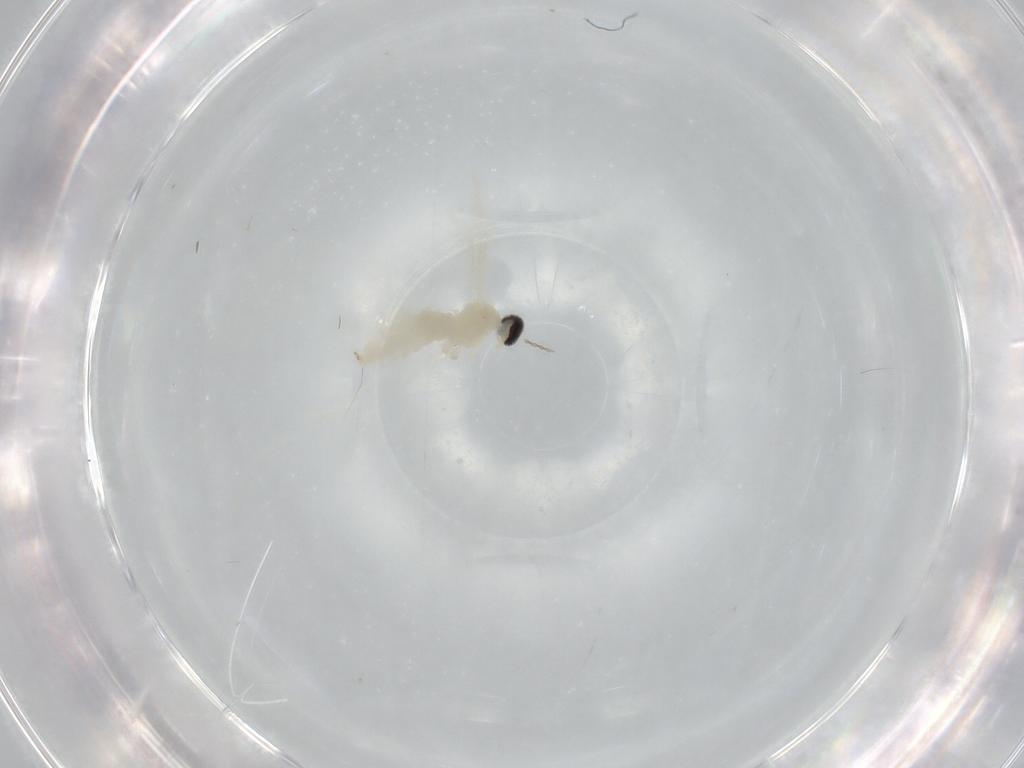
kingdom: Animalia
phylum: Arthropoda
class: Insecta
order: Diptera
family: Cecidomyiidae
